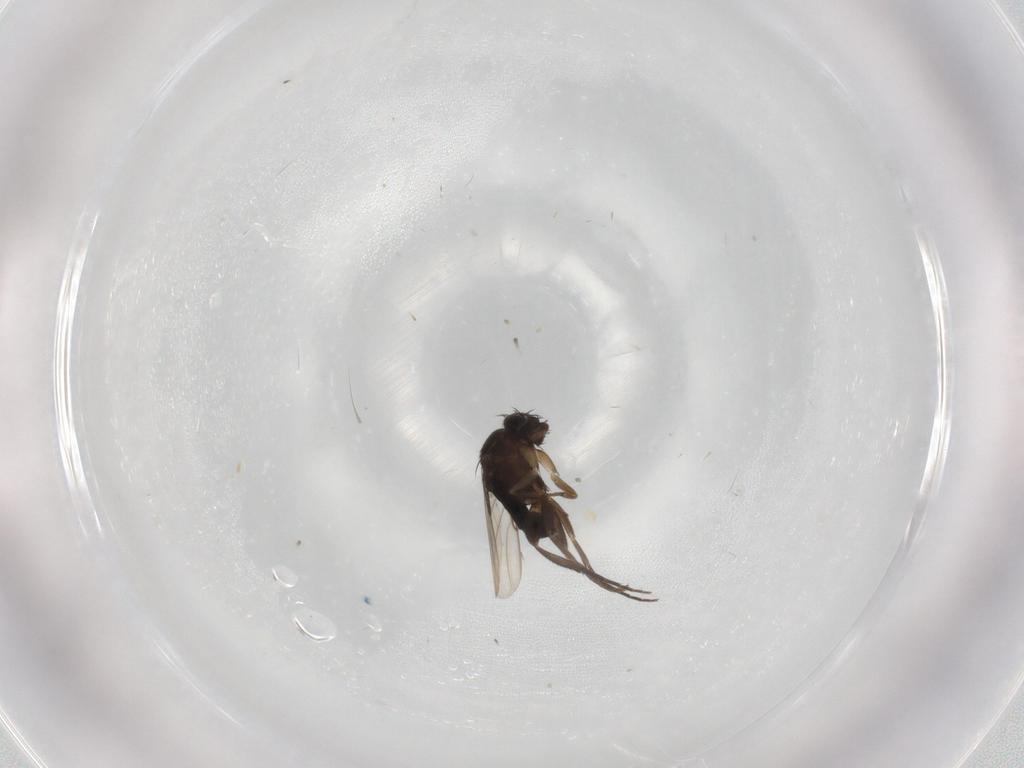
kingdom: Animalia
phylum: Arthropoda
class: Insecta
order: Diptera
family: Phoridae
